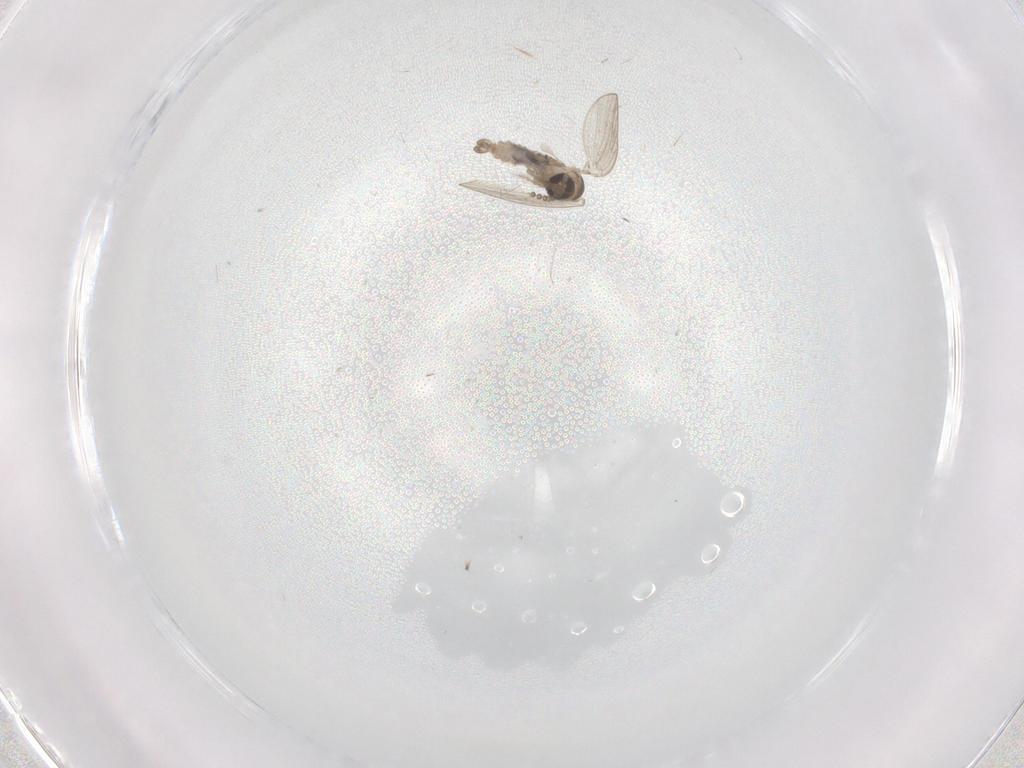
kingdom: Animalia
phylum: Arthropoda
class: Insecta
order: Diptera
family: Psychodidae
